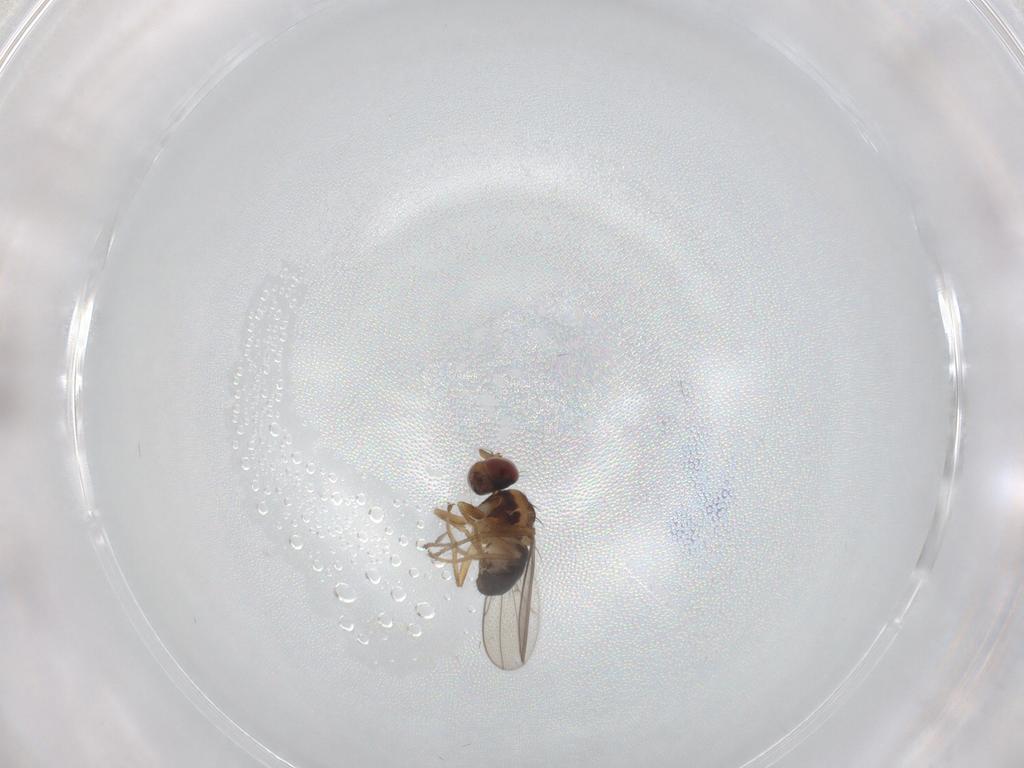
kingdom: Animalia
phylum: Arthropoda
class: Insecta
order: Diptera
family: Ephydridae
